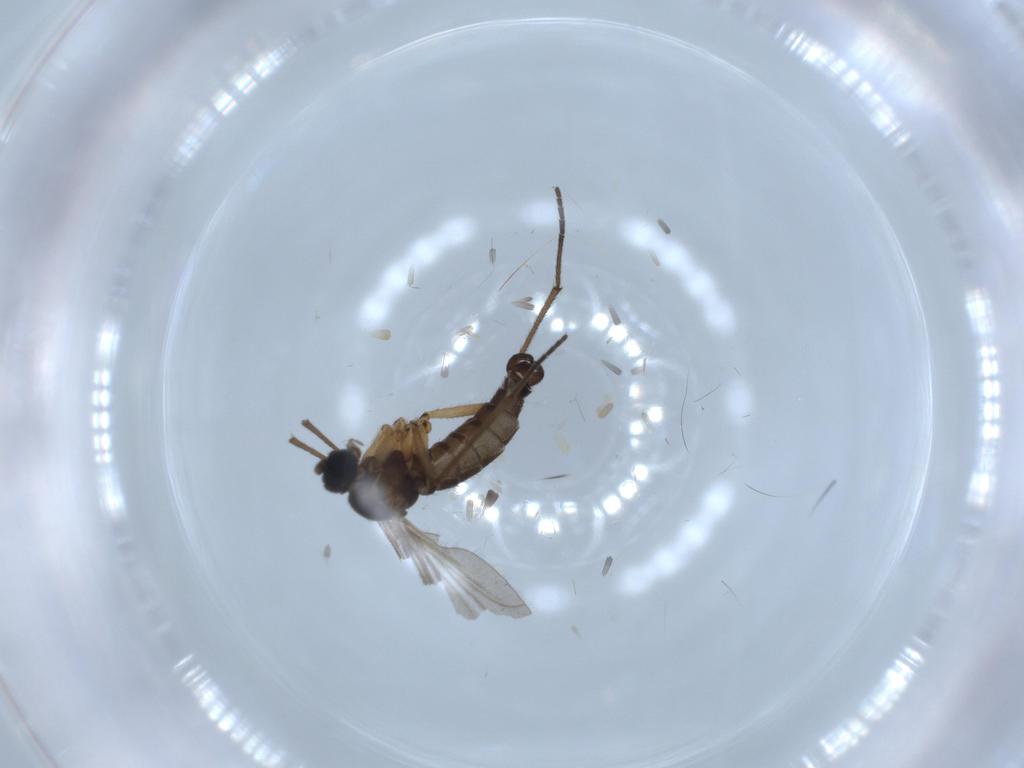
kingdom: Animalia
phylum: Arthropoda
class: Insecta
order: Diptera
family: Sciaridae
